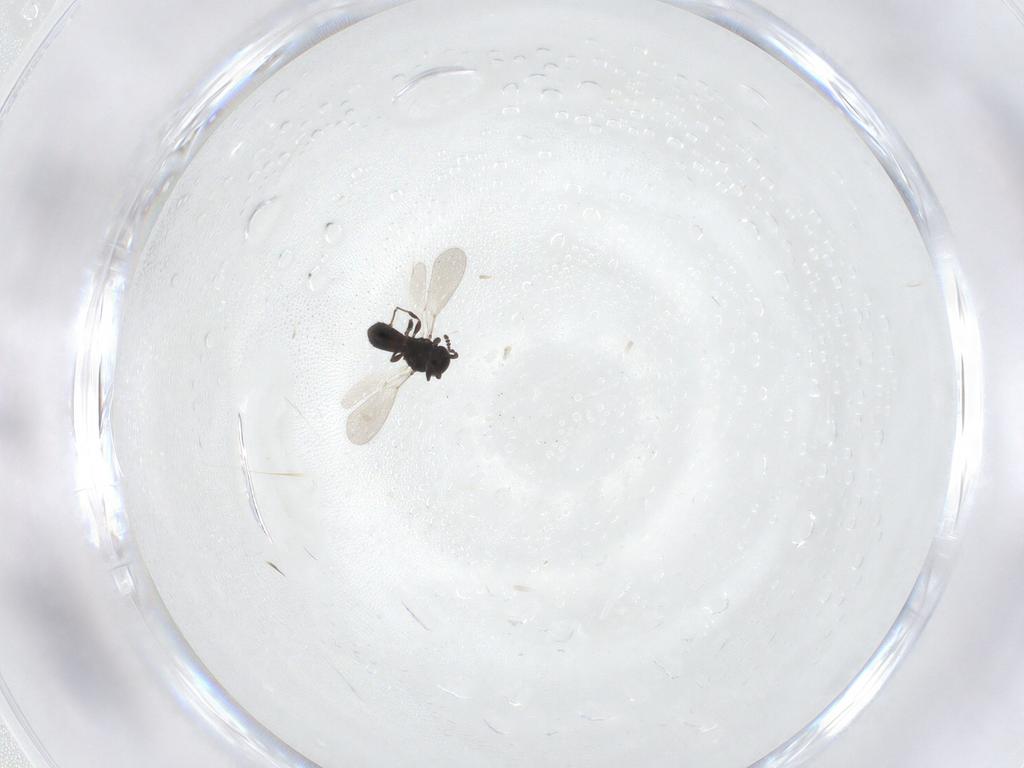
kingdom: Animalia
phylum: Arthropoda
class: Insecta
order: Hymenoptera
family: Platygastridae
